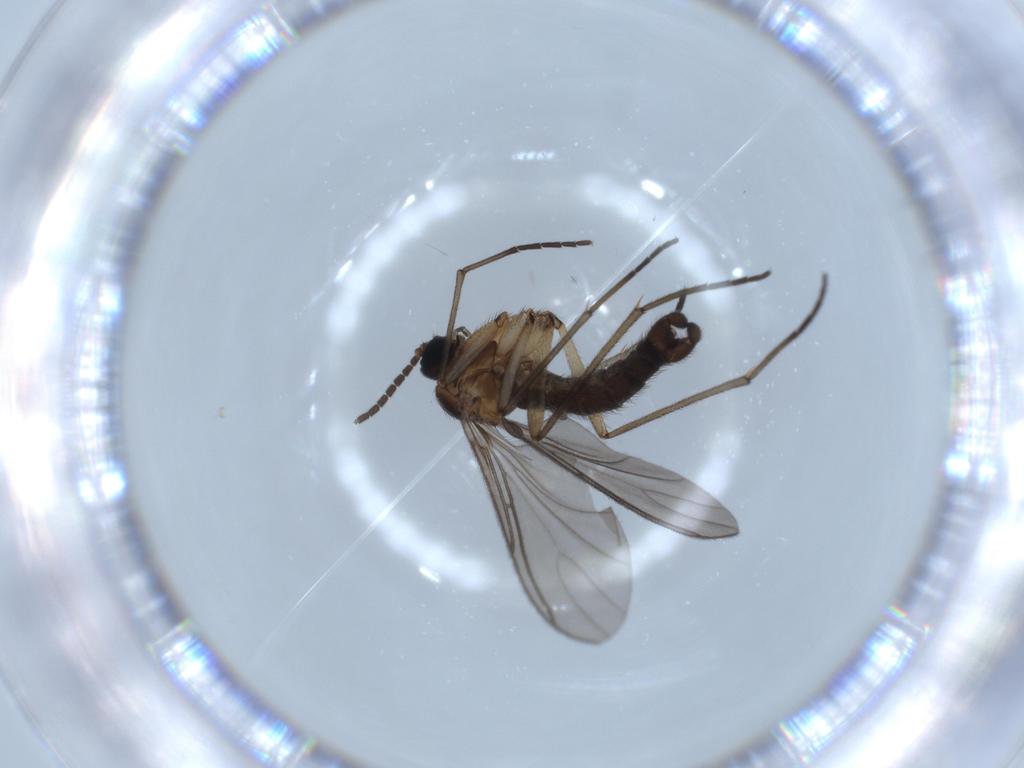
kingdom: Animalia
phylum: Arthropoda
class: Insecta
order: Diptera
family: Sciaridae
